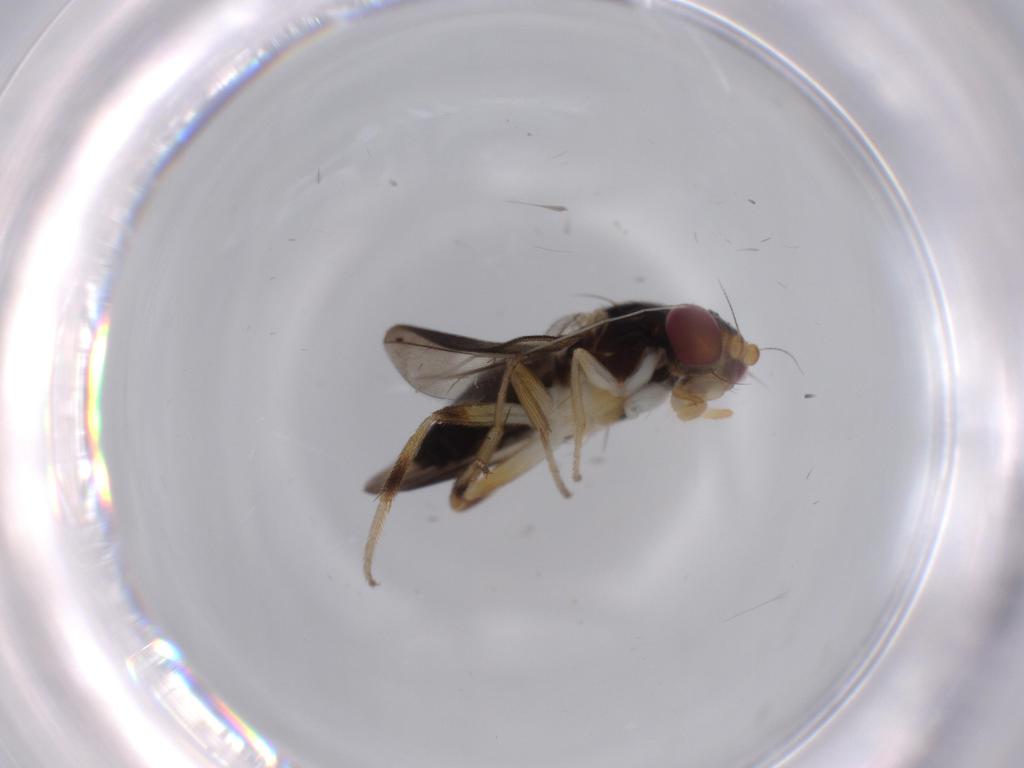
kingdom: Animalia
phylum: Arthropoda
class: Insecta
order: Diptera
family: Clusiidae
